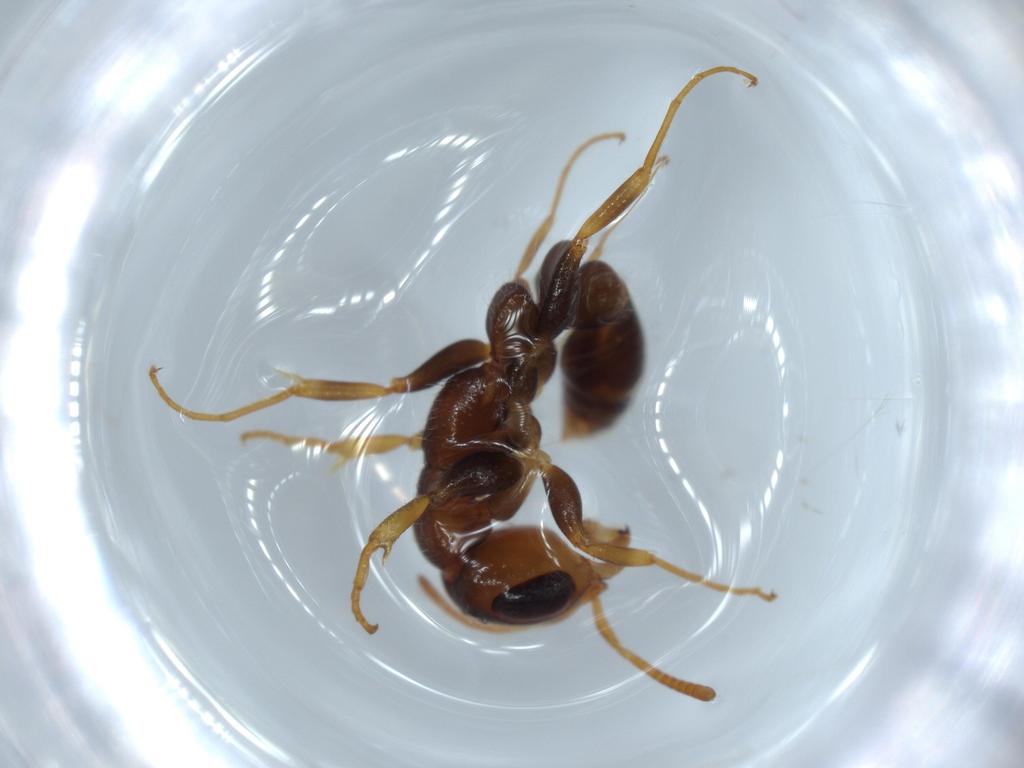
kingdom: Animalia
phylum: Arthropoda
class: Insecta
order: Hymenoptera
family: Formicidae
